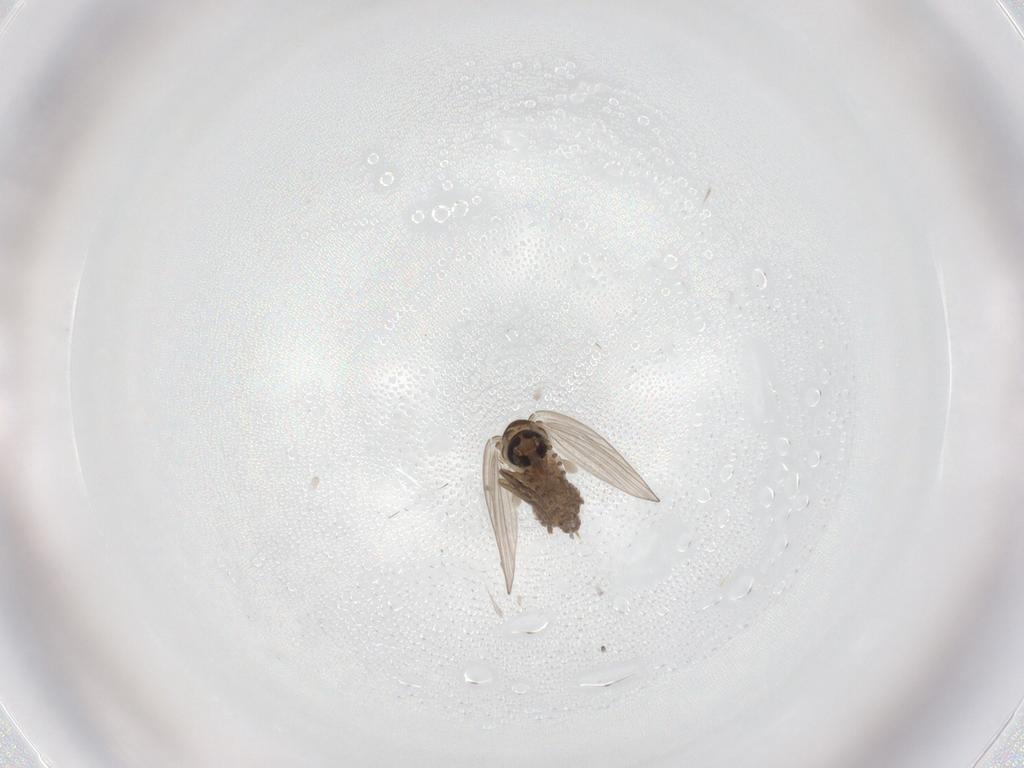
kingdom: Animalia
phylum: Arthropoda
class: Insecta
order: Diptera
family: Psychodidae
